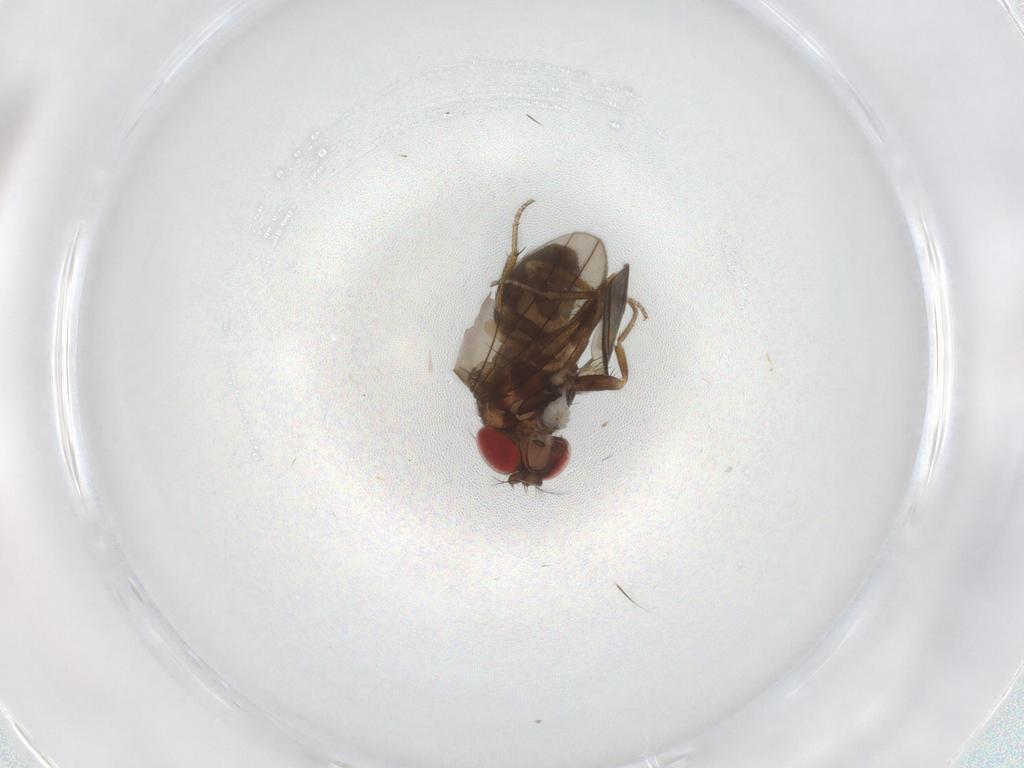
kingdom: Animalia
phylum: Arthropoda
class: Insecta
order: Diptera
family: Drosophilidae
